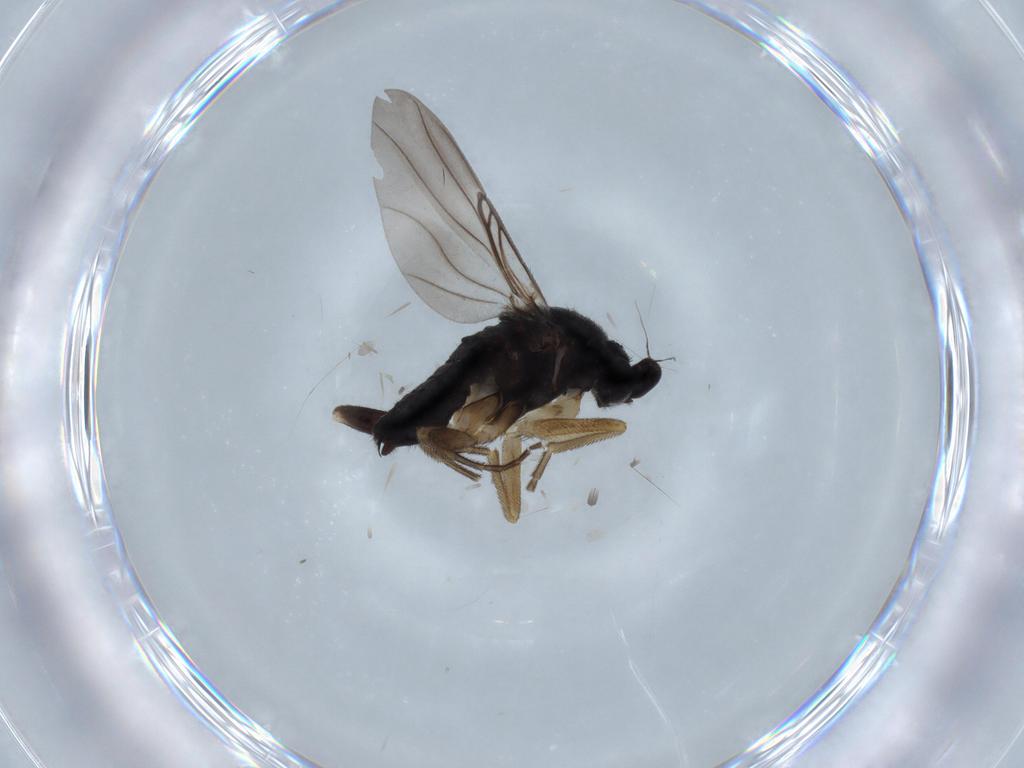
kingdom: Animalia
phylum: Arthropoda
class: Insecta
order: Diptera
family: Phoridae
